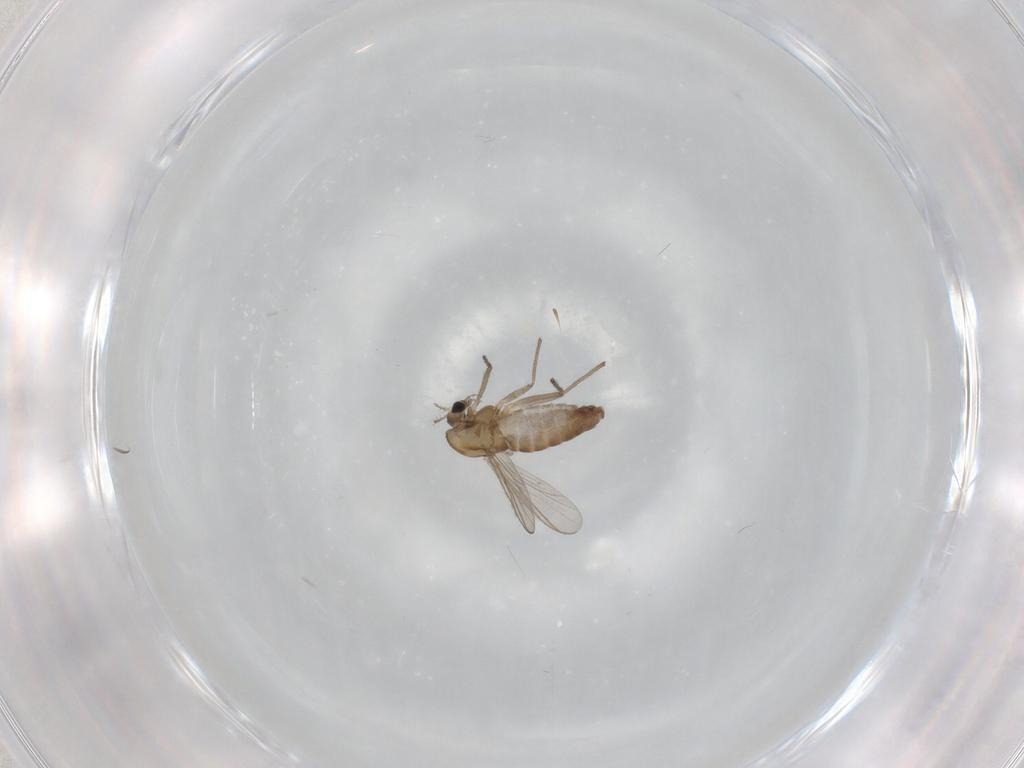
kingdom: Animalia
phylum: Arthropoda
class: Insecta
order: Diptera
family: Chironomidae
